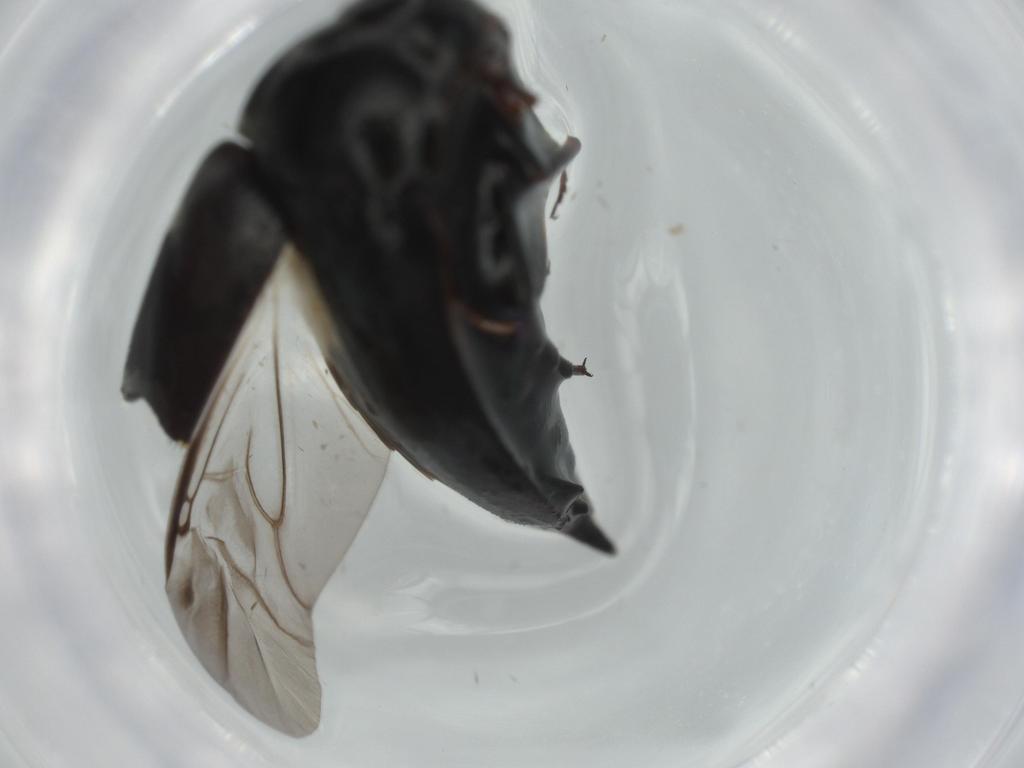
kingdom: Animalia
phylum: Arthropoda
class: Insecta
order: Coleoptera
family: Mordellidae
